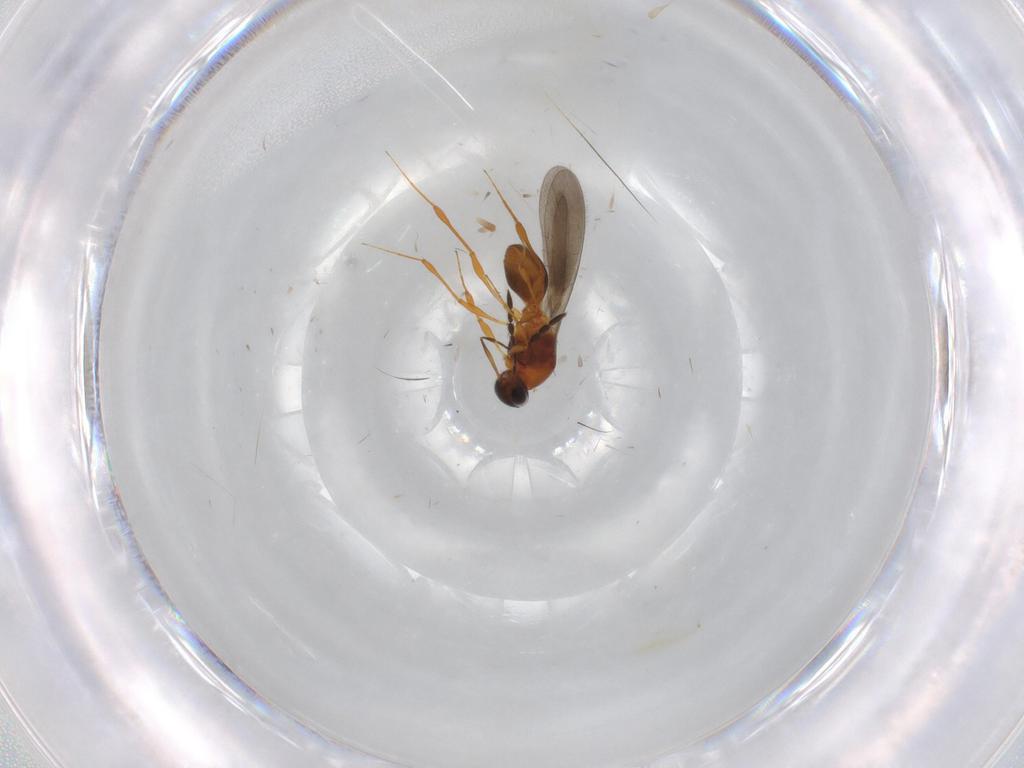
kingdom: Animalia
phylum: Arthropoda
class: Insecta
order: Hymenoptera
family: Platygastridae
